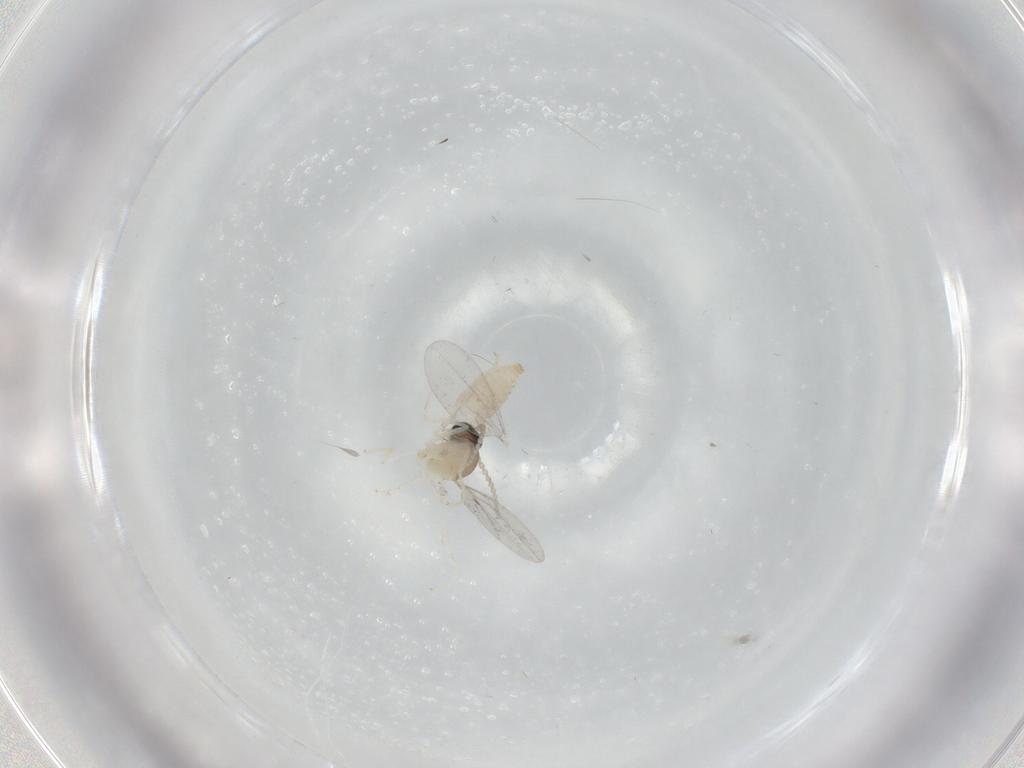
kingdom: Animalia
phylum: Arthropoda
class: Insecta
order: Diptera
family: Cecidomyiidae
